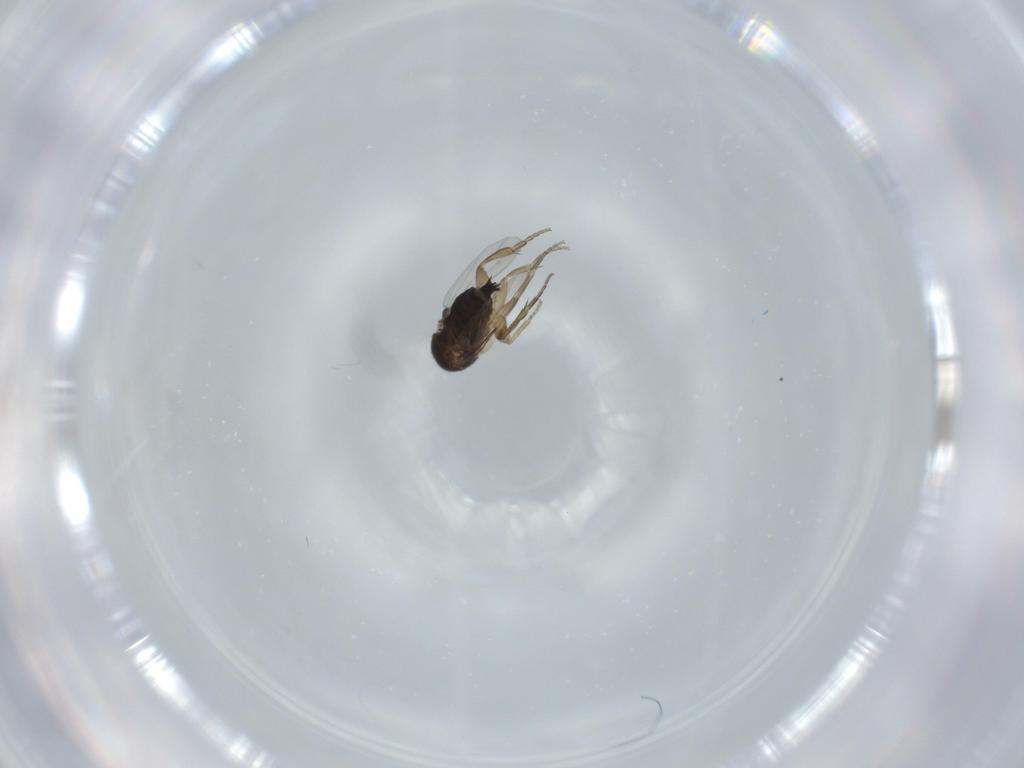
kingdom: Animalia
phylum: Arthropoda
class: Insecta
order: Diptera
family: Phoridae
